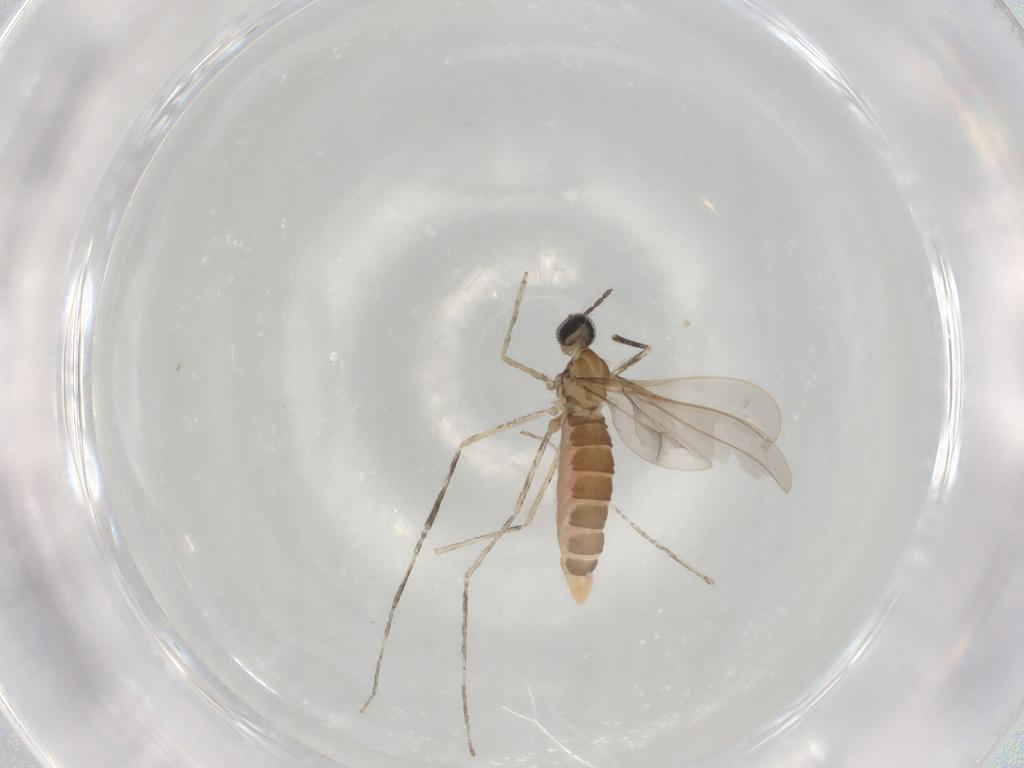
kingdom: Animalia
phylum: Arthropoda
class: Insecta
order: Diptera
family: Cecidomyiidae
